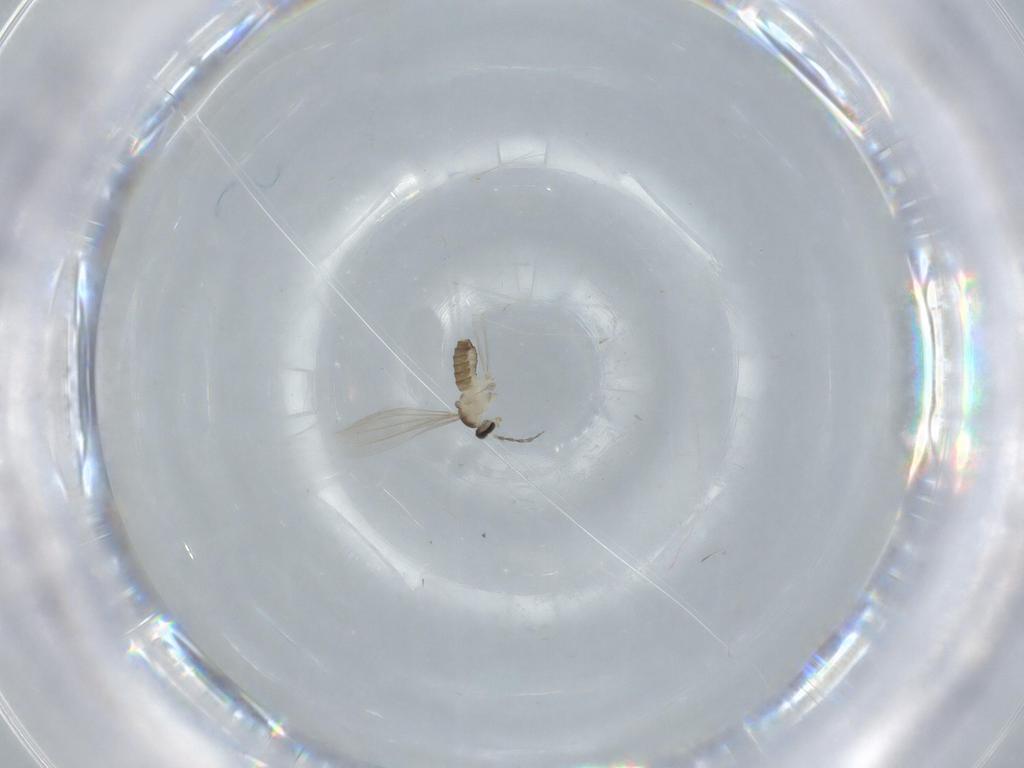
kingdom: Animalia
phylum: Arthropoda
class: Insecta
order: Diptera
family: Cecidomyiidae
